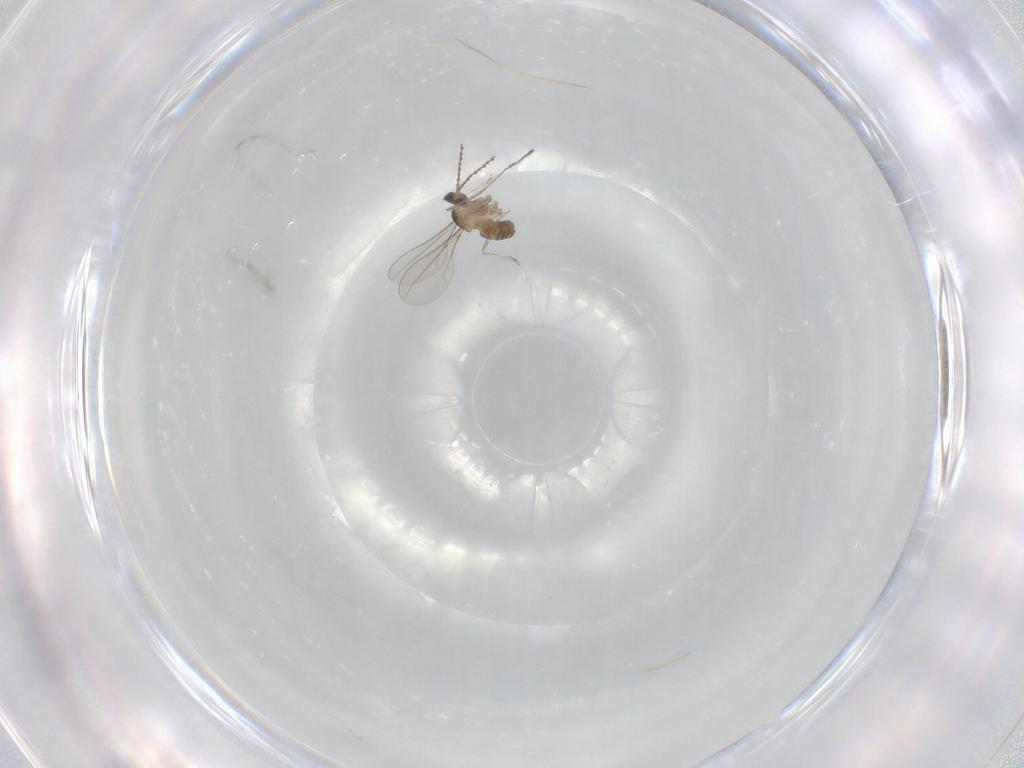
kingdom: Animalia
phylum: Arthropoda
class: Insecta
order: Diptera
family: Cecidomyiidae
